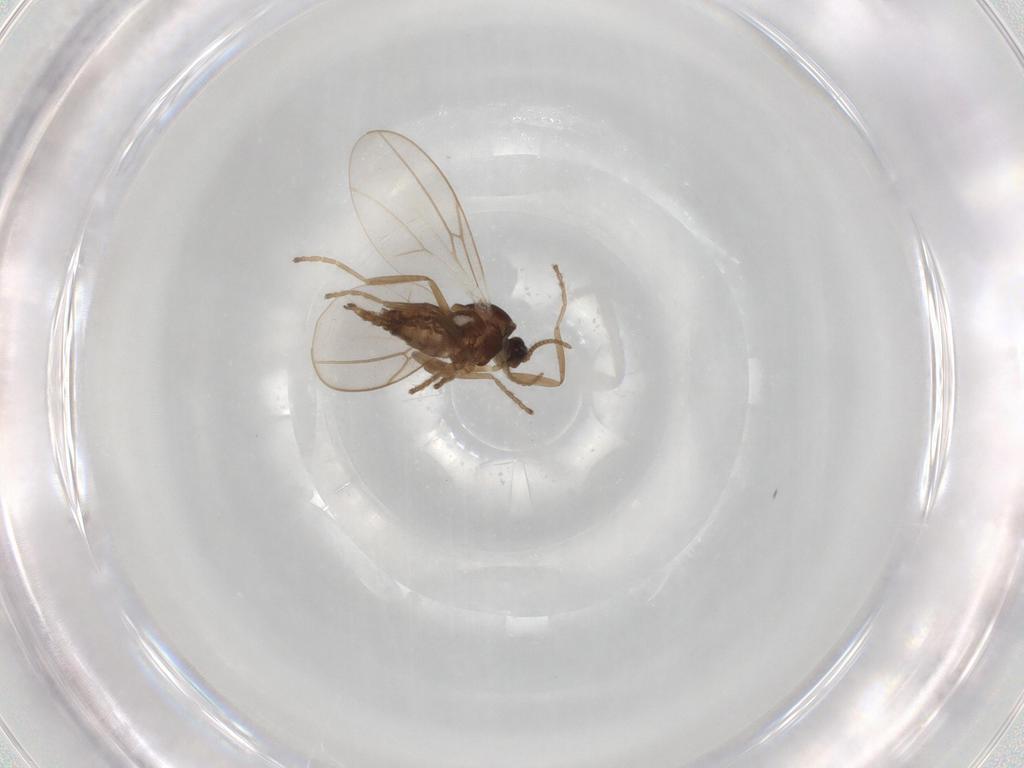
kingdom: Animalia
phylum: Arthropoda
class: Insecta
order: Diptera
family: Cecidomyiidae
